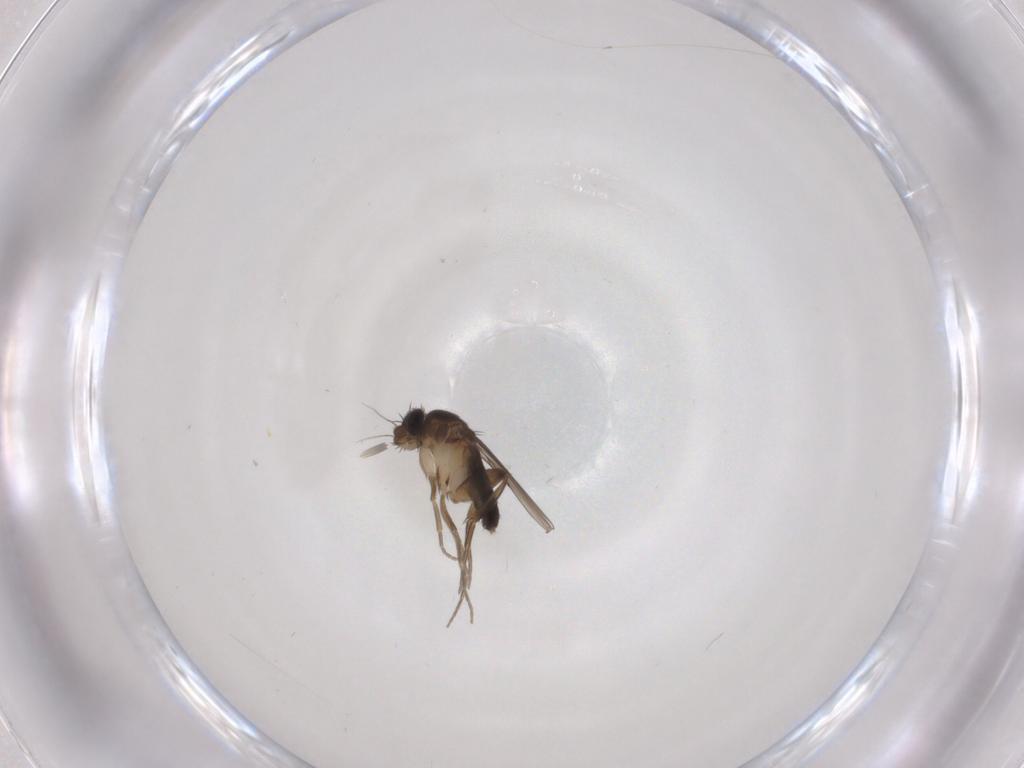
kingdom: Animalia
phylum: Arthropoda
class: Insecta
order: Diptera
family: Phoridae
